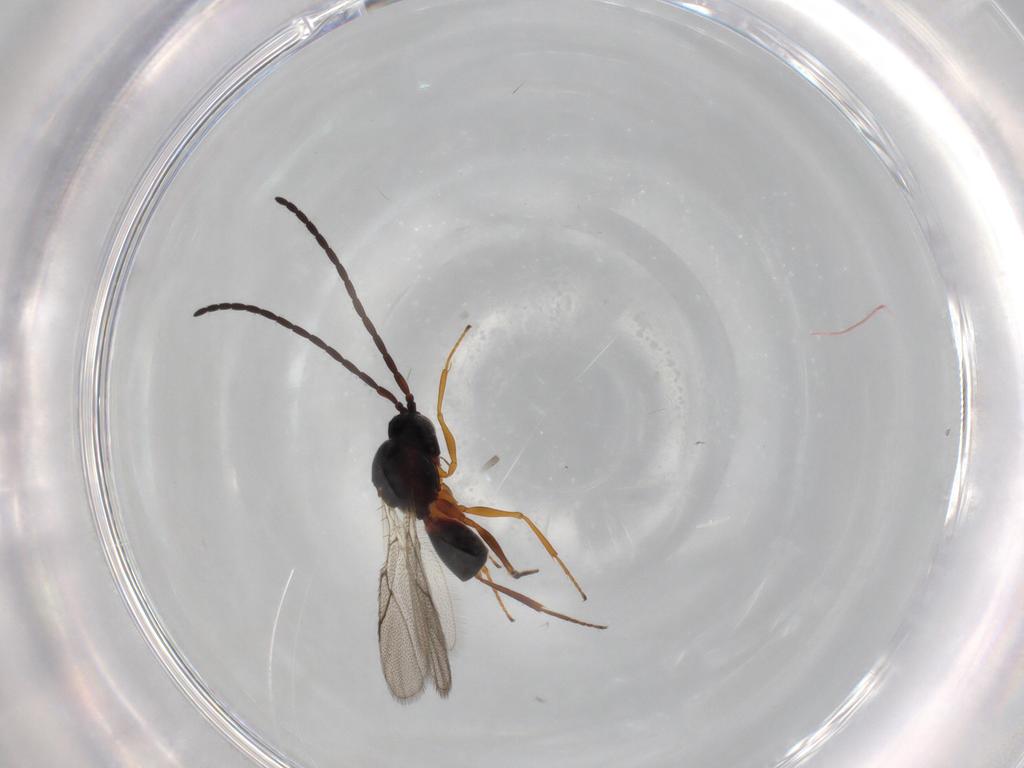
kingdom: Animalia
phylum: Arthropoda
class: Insecta
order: Hymenoptera
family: Figitidae
